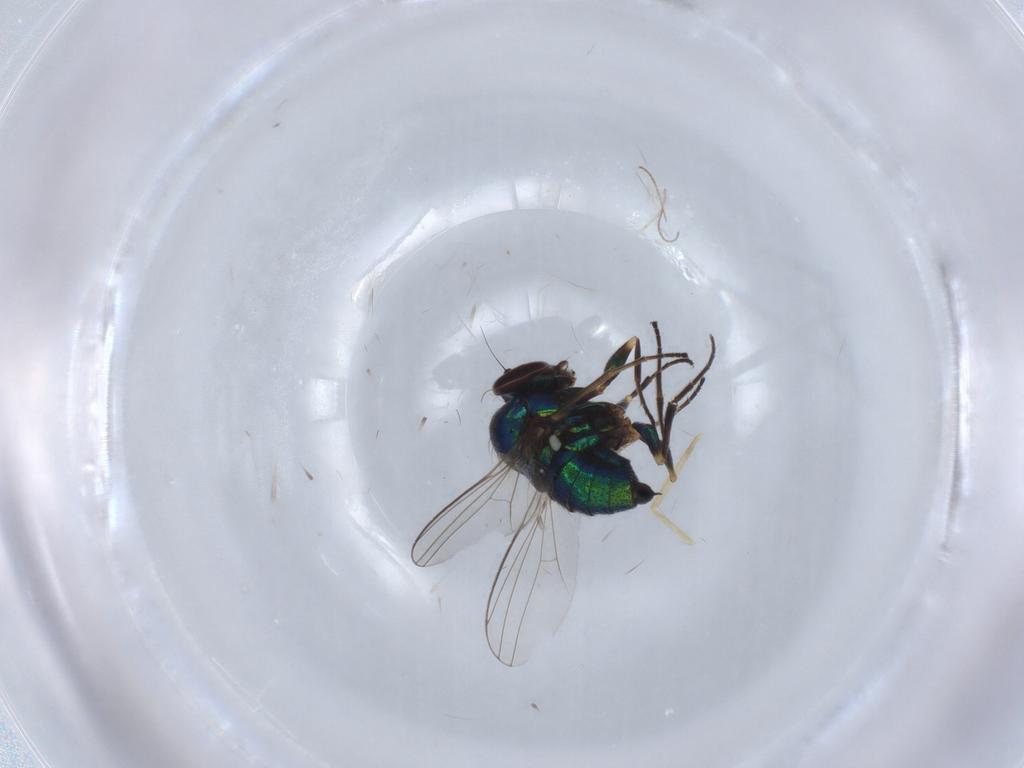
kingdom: Animalia
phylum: Arthropoda
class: Insecta
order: Diptera
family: Dolichopodidae
